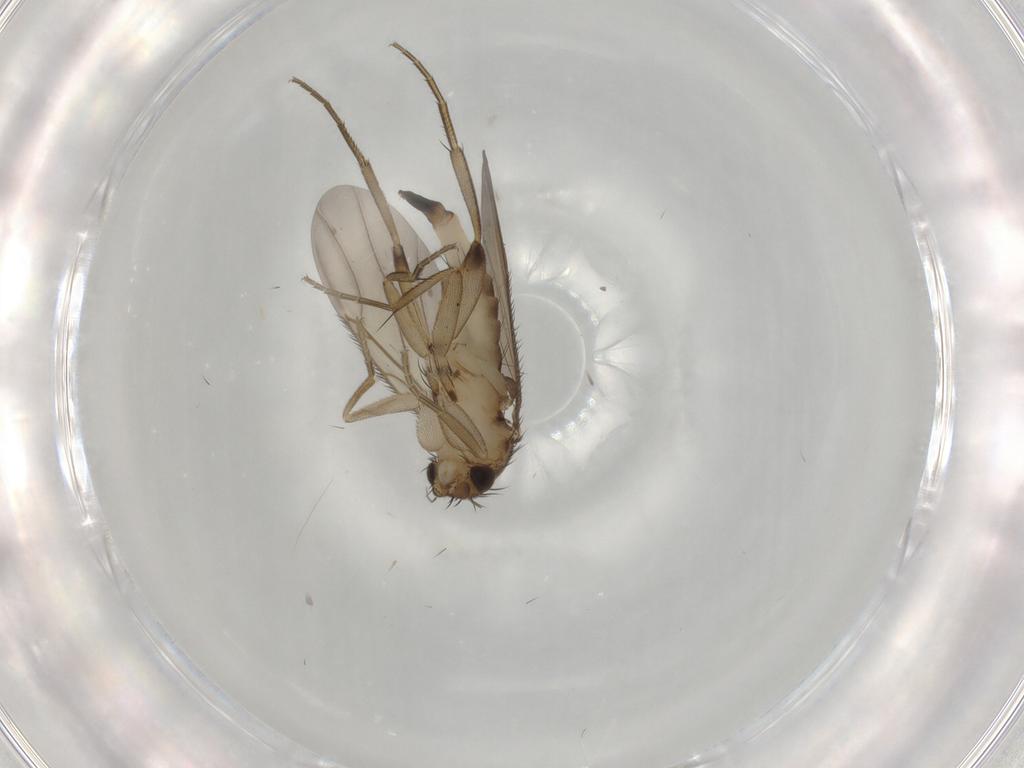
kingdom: Animalia
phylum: Arthropoda
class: Insecta
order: Diptera
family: Phoridae
